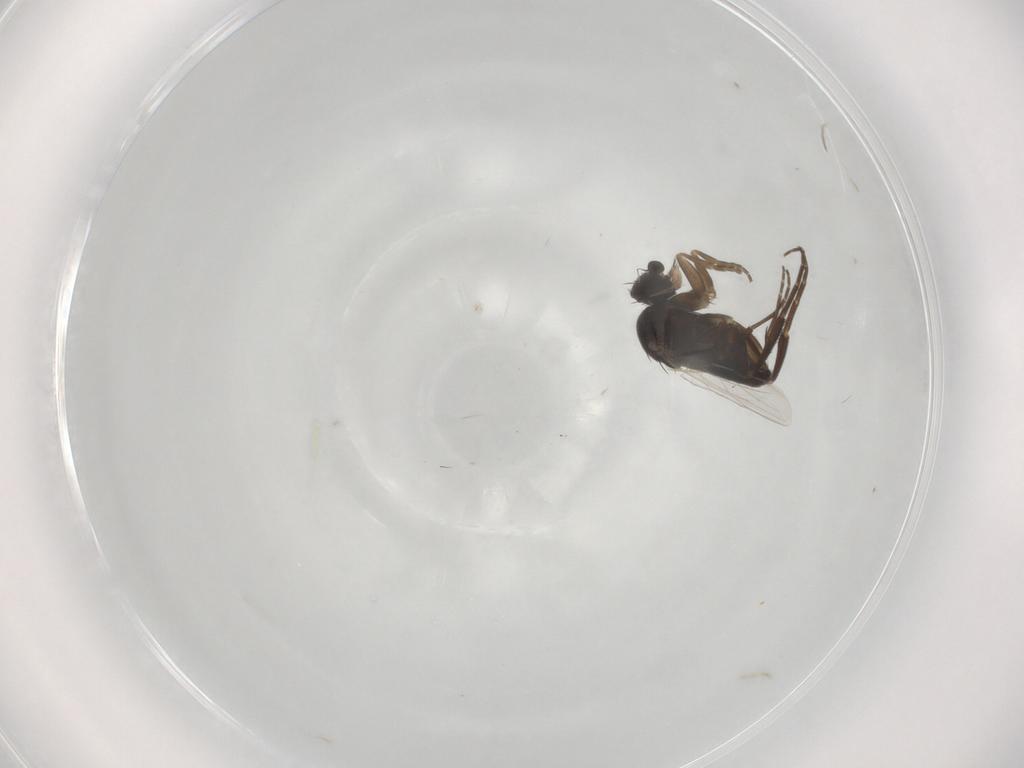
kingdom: Animalia
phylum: Arthropoda
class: Insecta
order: Diptera
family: Phoridae
